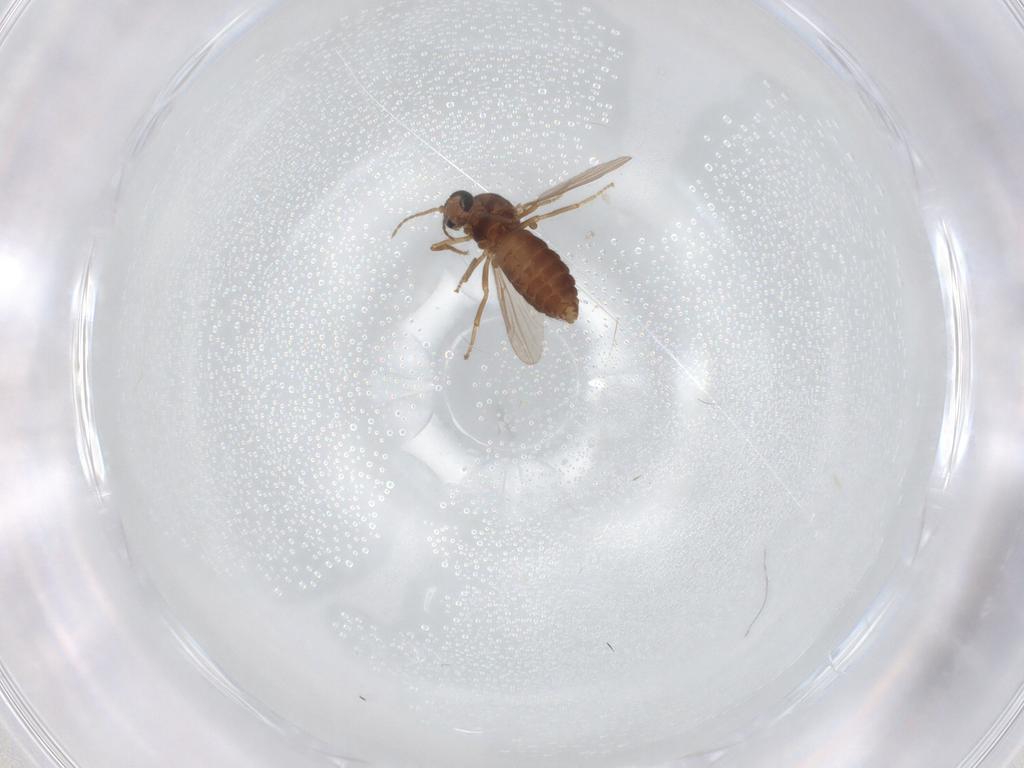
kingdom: Animalia
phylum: Arthropoda
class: Insecta
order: Diptera
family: Ceratopogonidae
